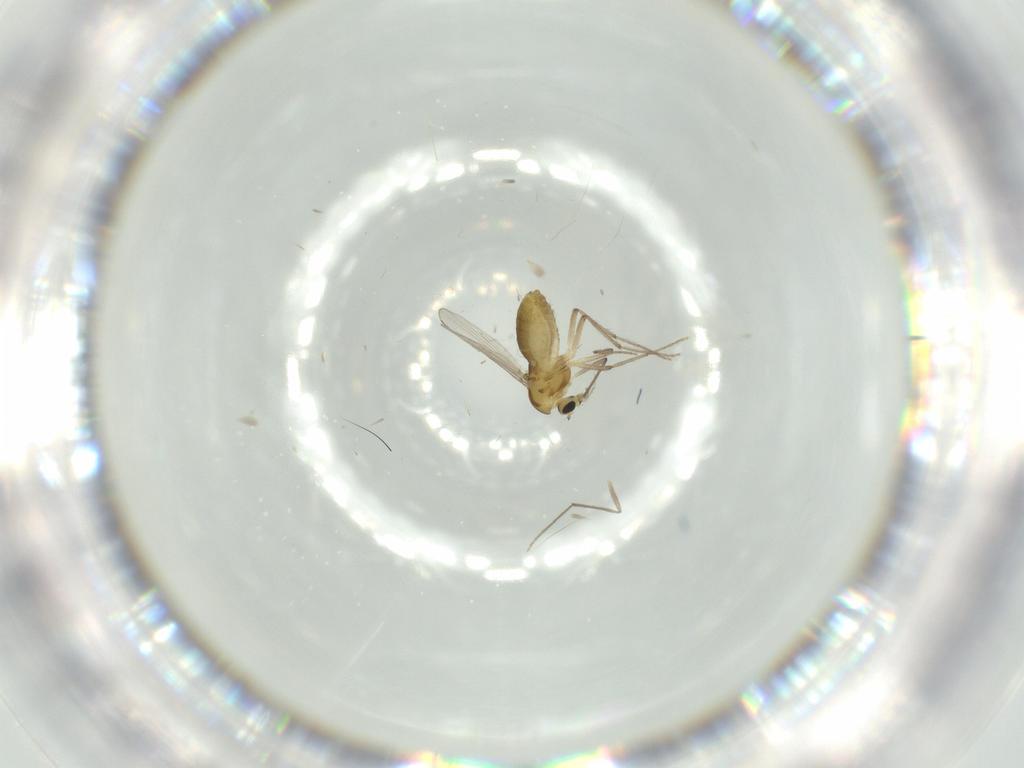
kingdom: Animalia
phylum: Arthropoda
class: Insecta
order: Diptera
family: Chironomidae
